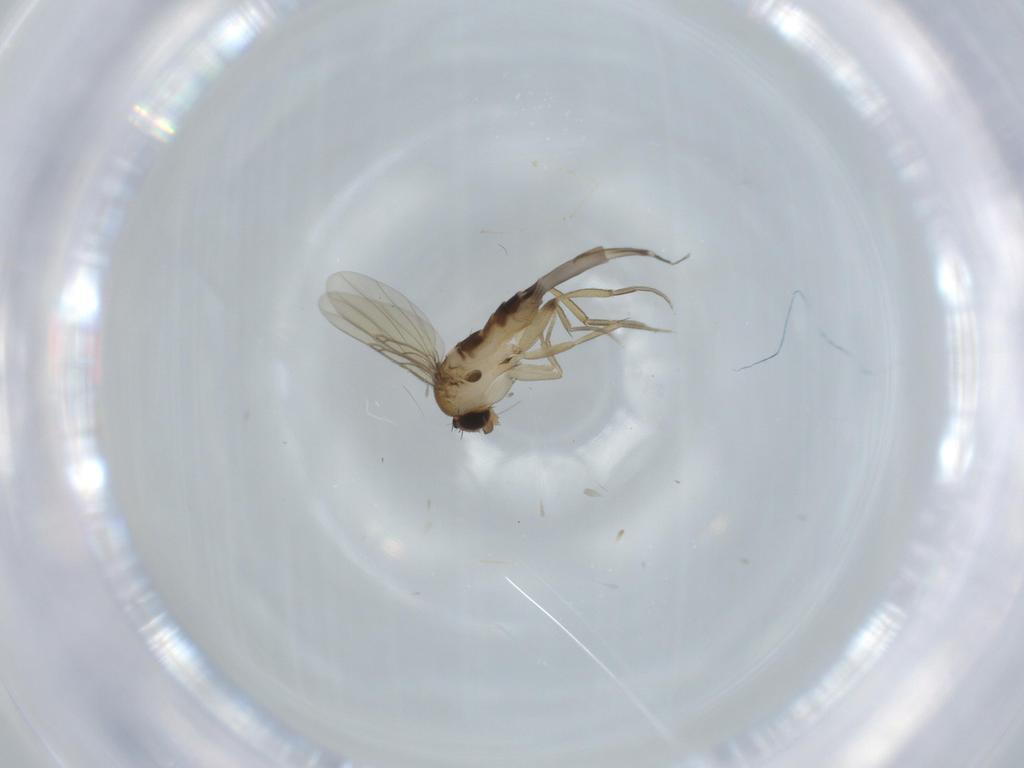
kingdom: Animalia
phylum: Arthropoda
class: Insecta
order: Diptera
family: Phoridae
